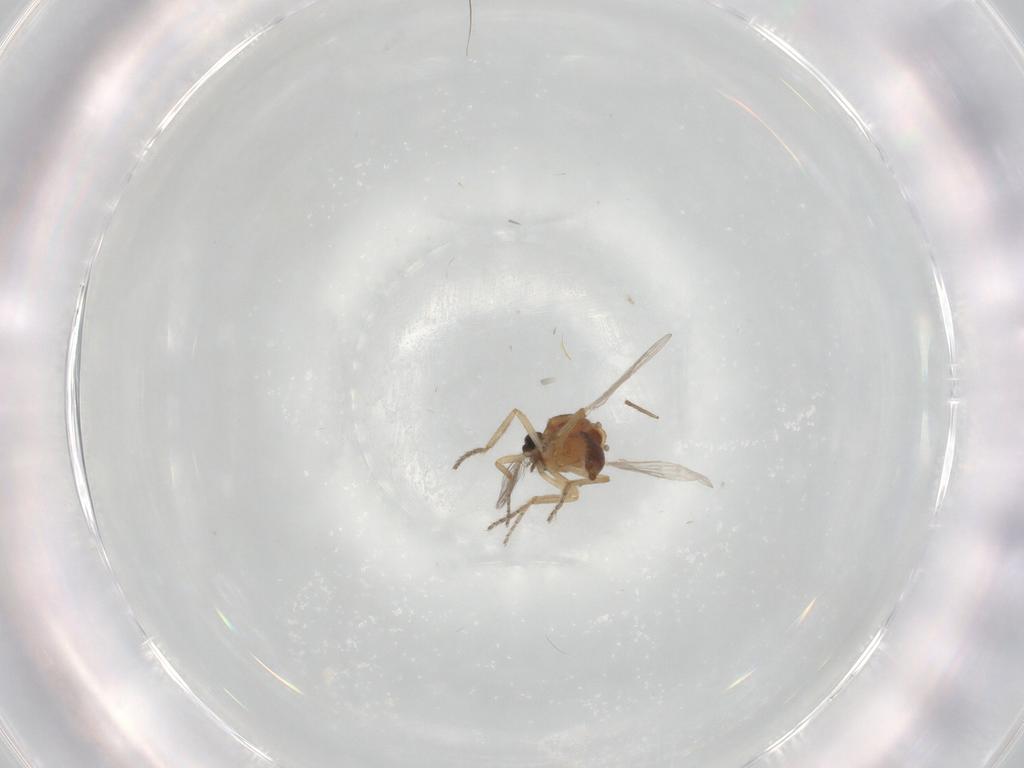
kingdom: Animalia
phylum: Arthropoda
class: Insecta
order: Diptera
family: Ceratopogonidae
